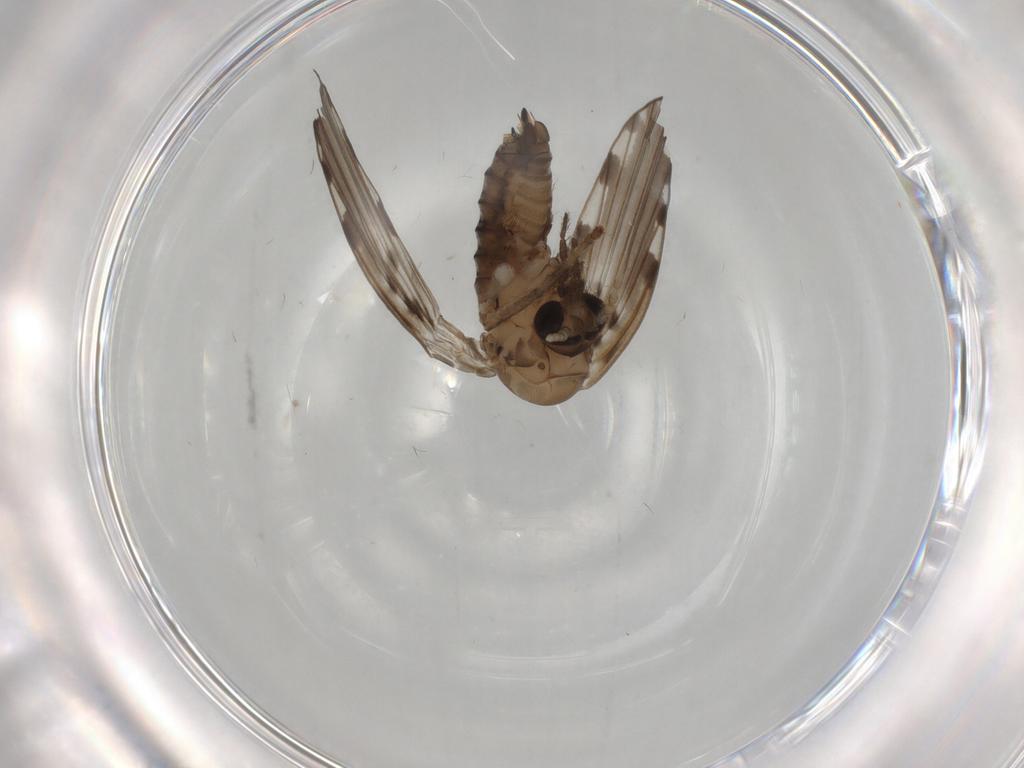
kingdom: Animalia
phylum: Arthropoda
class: Insecta
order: Diptera
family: Psychodidae
